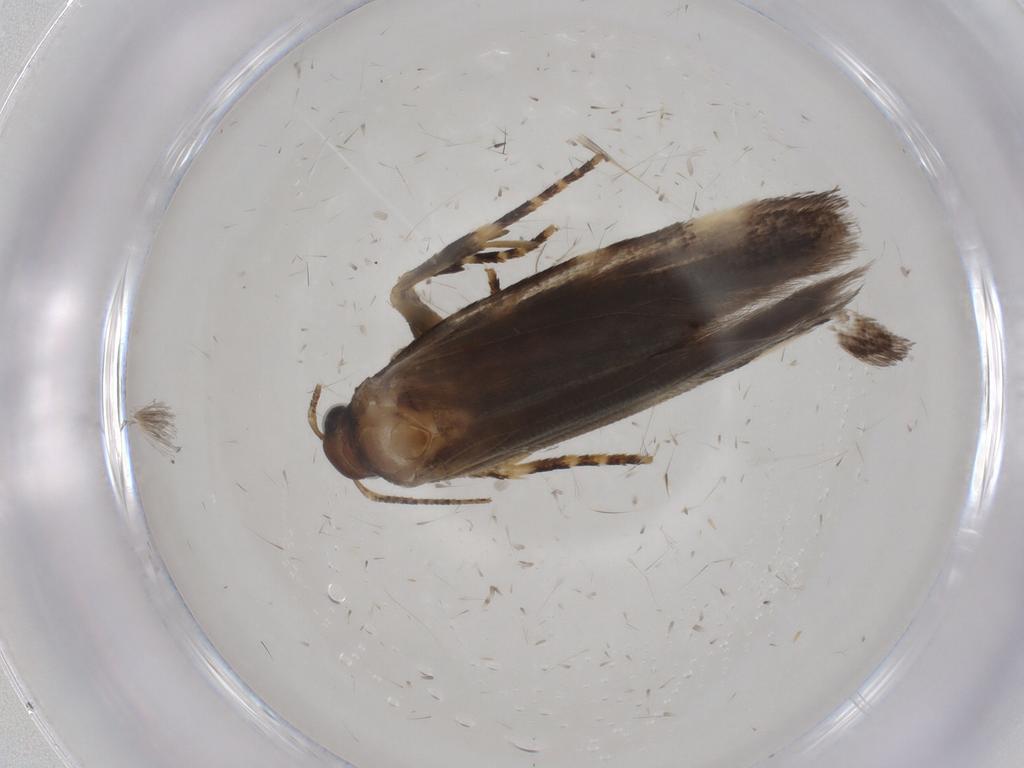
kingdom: Animalia
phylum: Arthropoda
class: Insecta
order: Lepidoptera
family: Gelechiidae
